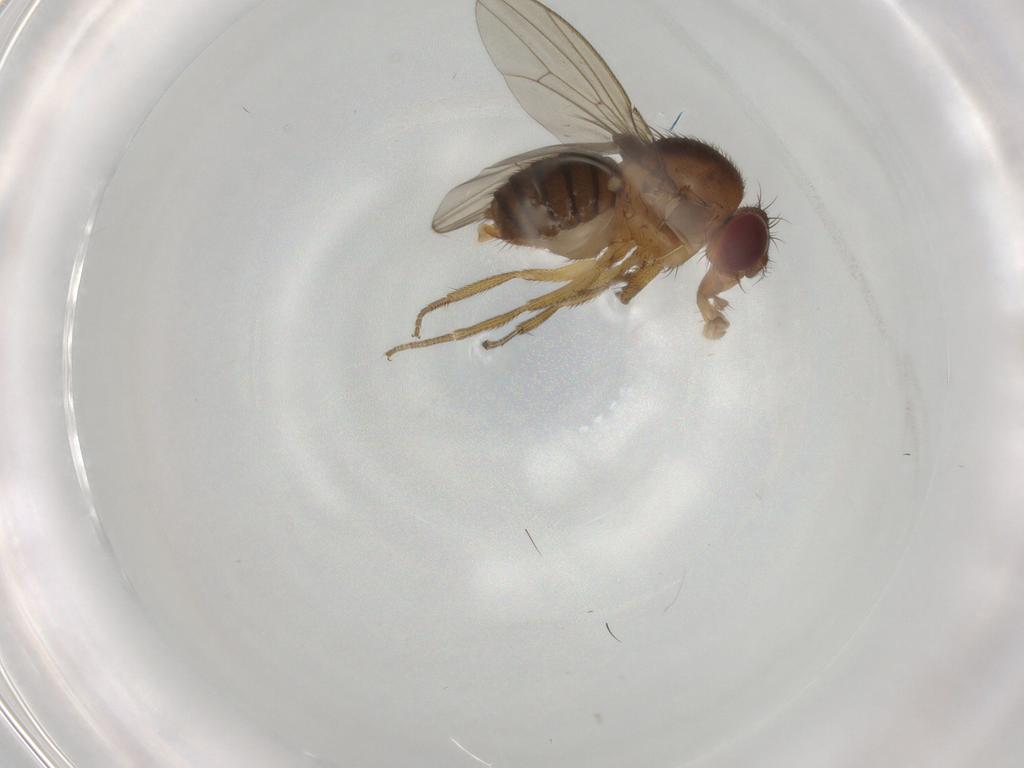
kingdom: Animalia
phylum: Arthropoda
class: Insecta
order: Diptera
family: Drosophilidae
